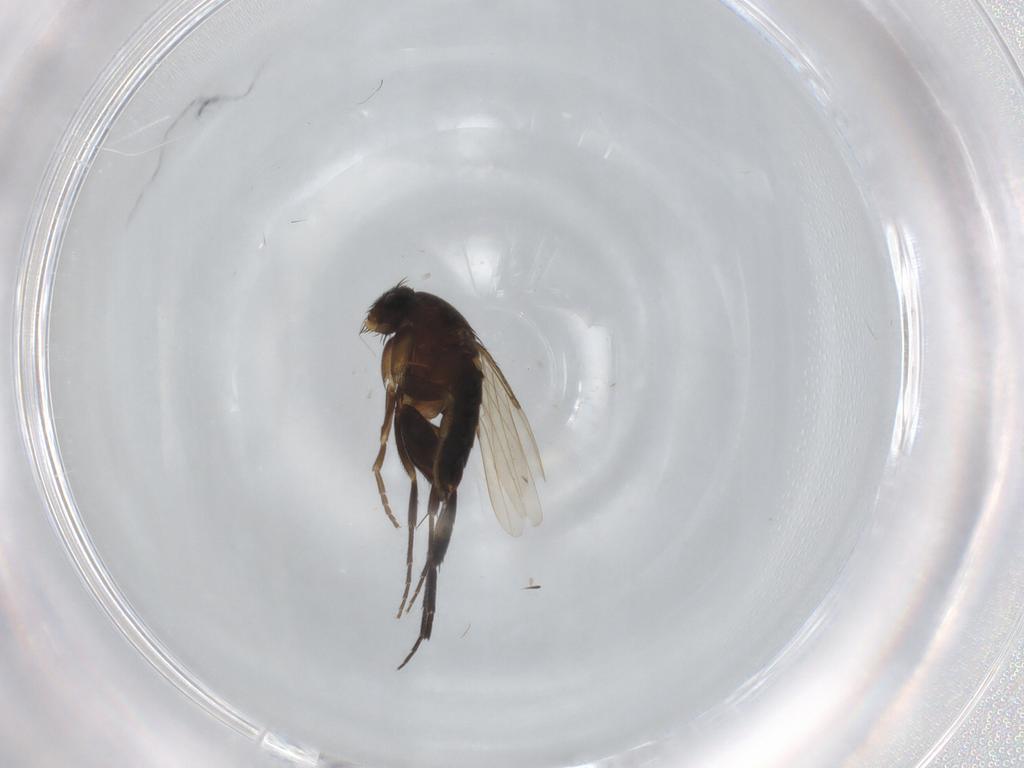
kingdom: Animalia
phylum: Arthropoda
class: Insecta
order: Diptera
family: Phoridae
